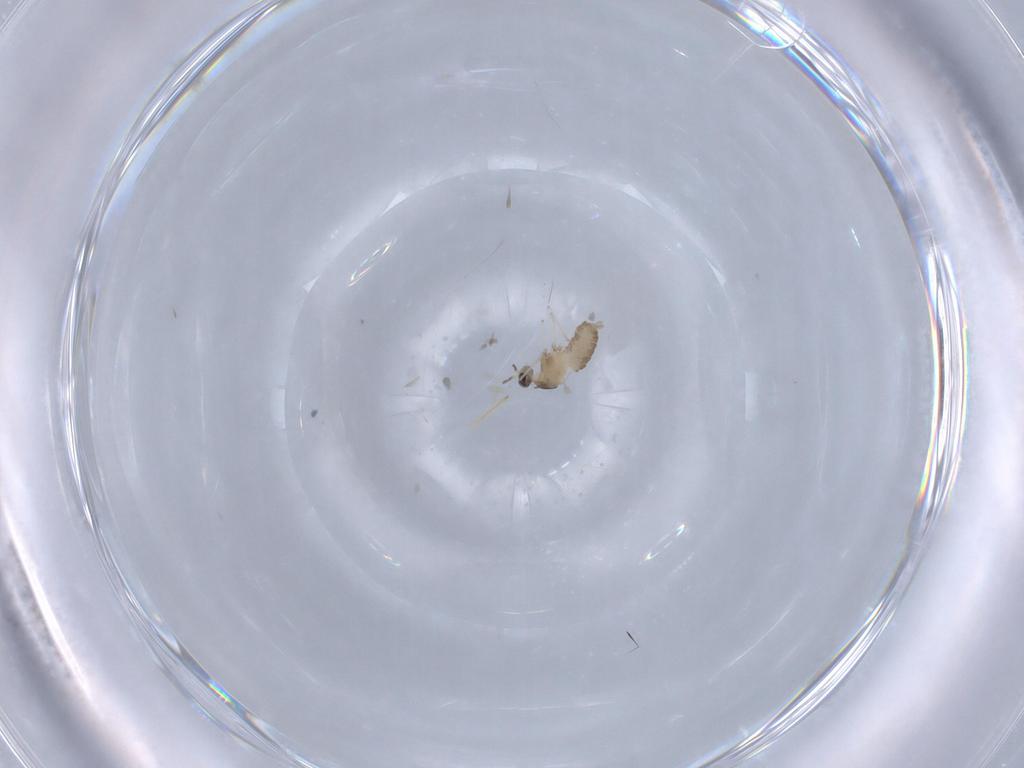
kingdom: Animalia
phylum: Arthropoda
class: Insecta
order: Diptera
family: Cecidomyiidae
